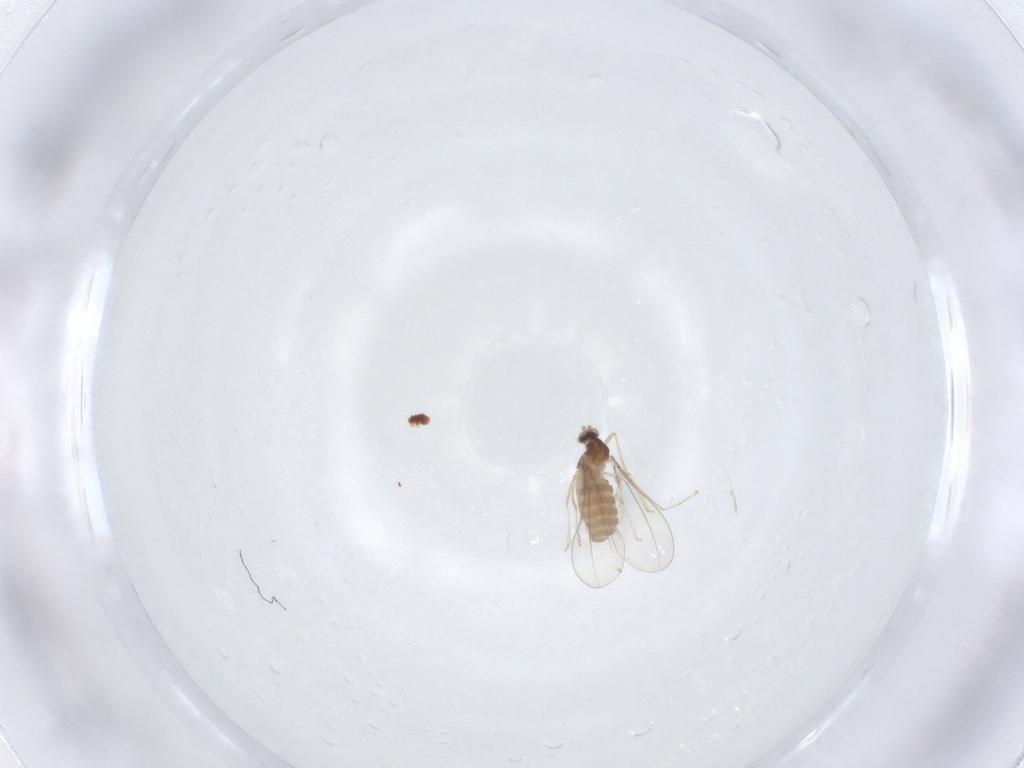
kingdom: Animalia
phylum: Arthropoda
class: Insecta
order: Diptera
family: Cecidomyiidae
